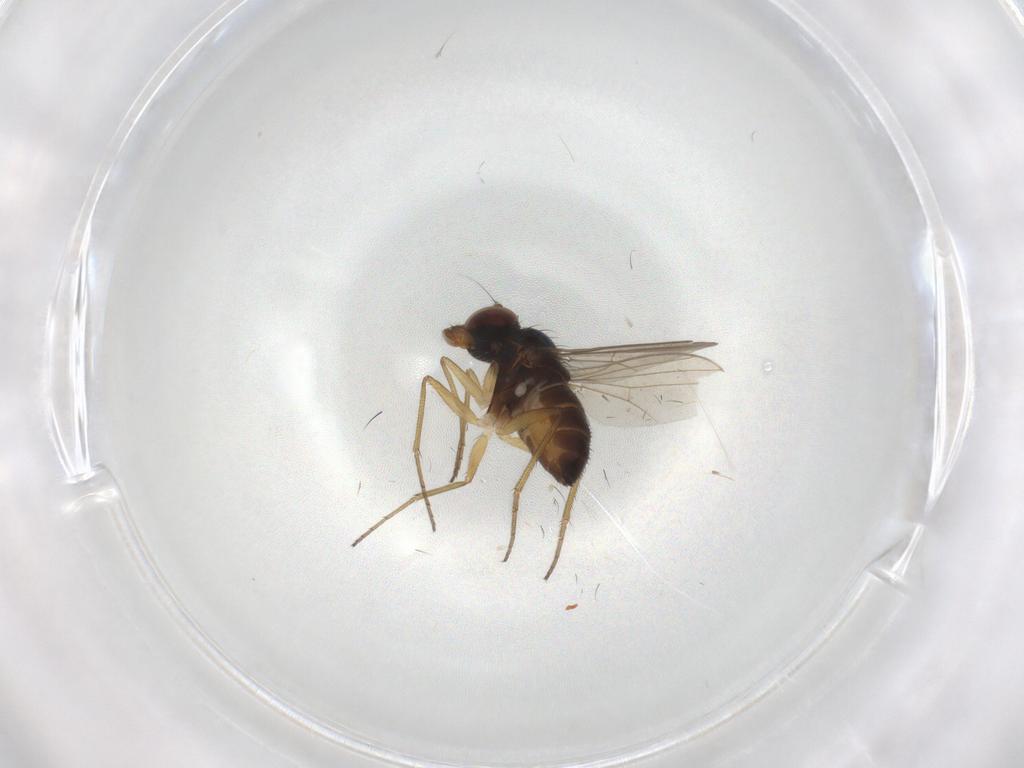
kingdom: Animalia
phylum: Arthropoda
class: Insecta
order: Diptera
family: Dolichopodidae
